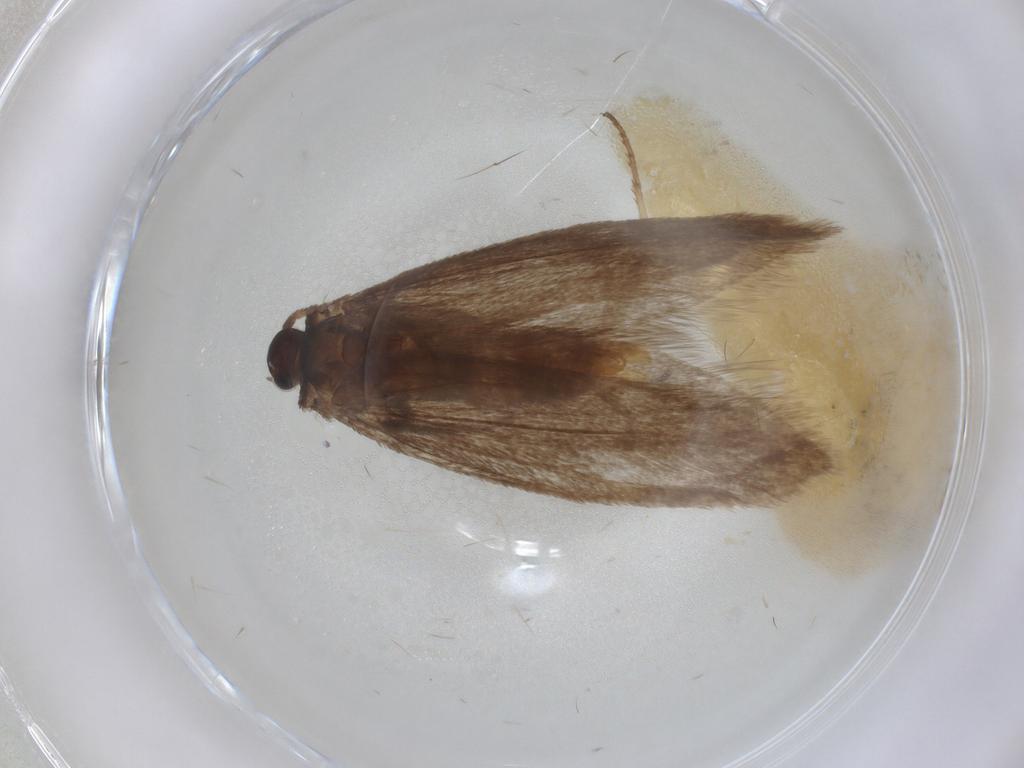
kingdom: Animalia
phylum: Arthropoda
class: Insecta
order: Lepidoptera
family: Limacodidae
